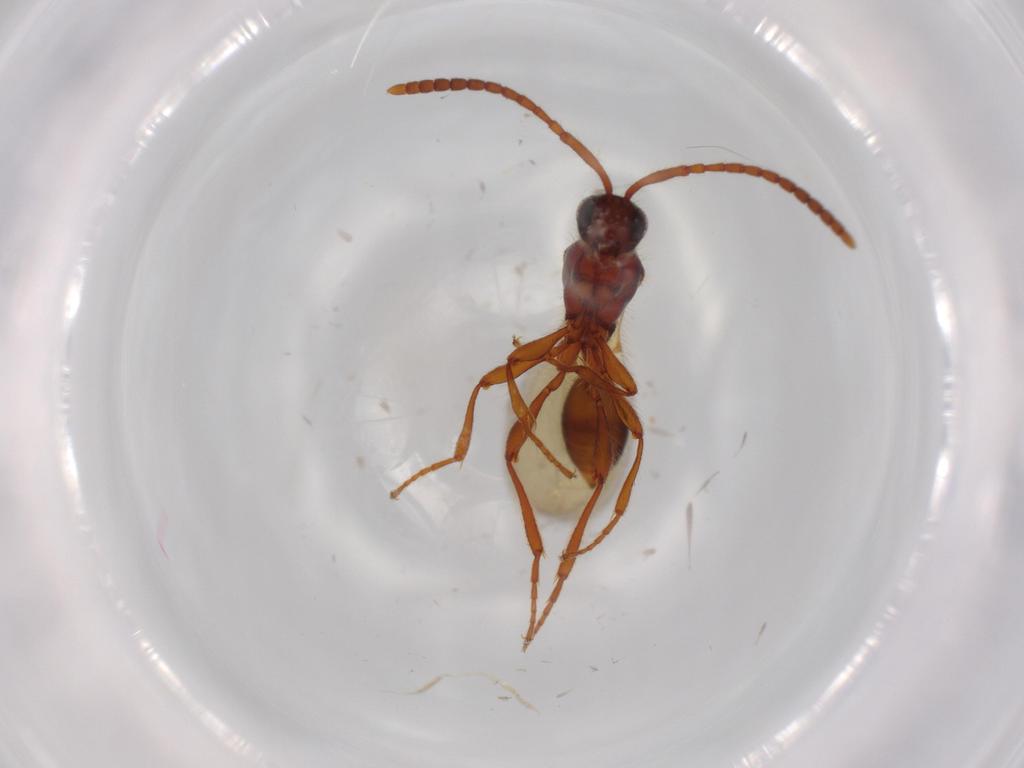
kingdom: Animalia
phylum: Arthropoda
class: Insecta
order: Hymenoptera
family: Diapriidae
